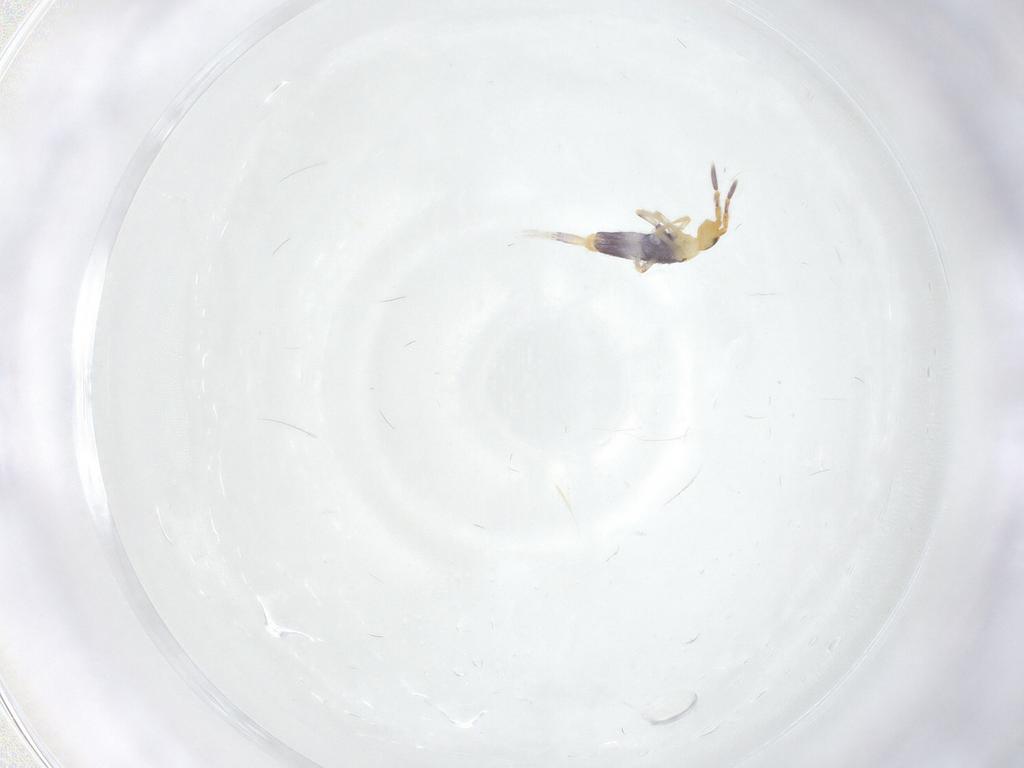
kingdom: Animalia
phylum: Arthropoda
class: Collembola
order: Entomobryomorpha
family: Entomobryidae
